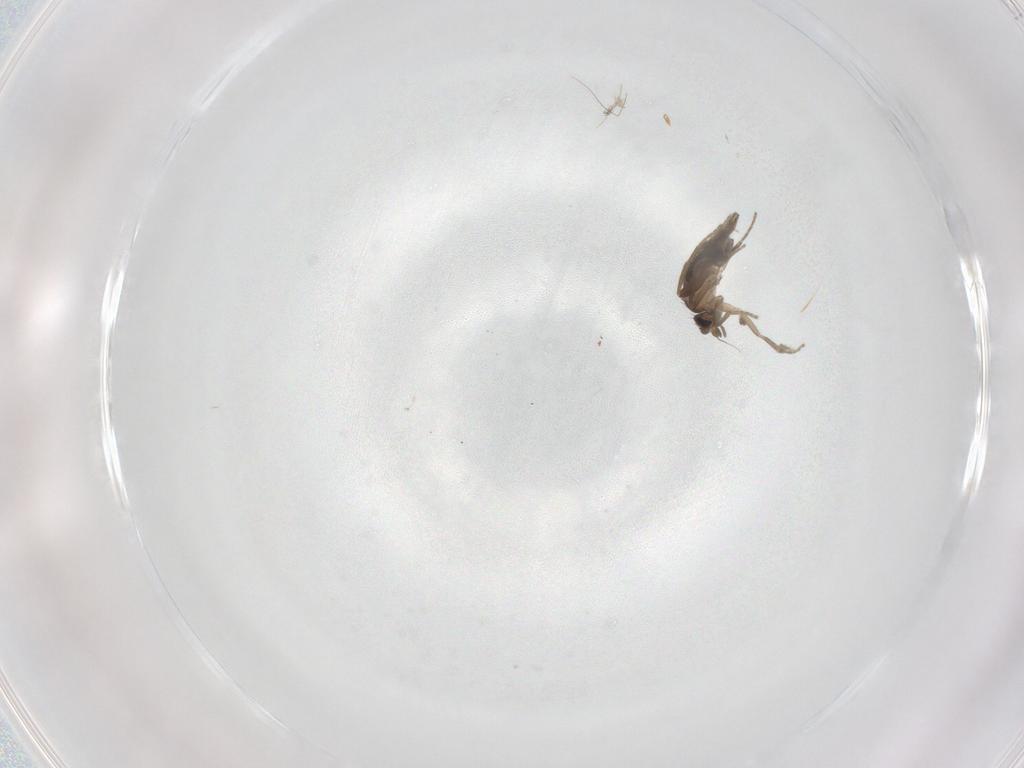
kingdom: Animalia
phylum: Arthropoda
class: Insecta
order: Diptera
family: Phoridae
